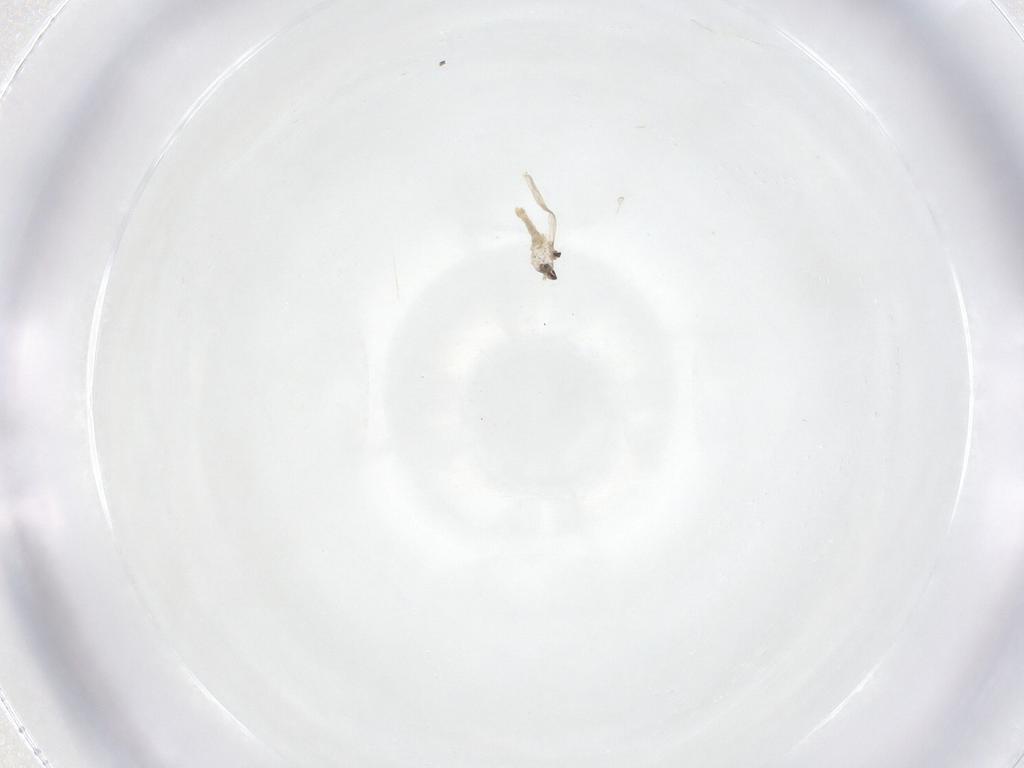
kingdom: Animalia
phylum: Arthropoda
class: Insecta
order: Diptera
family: Cecidomyiidae
